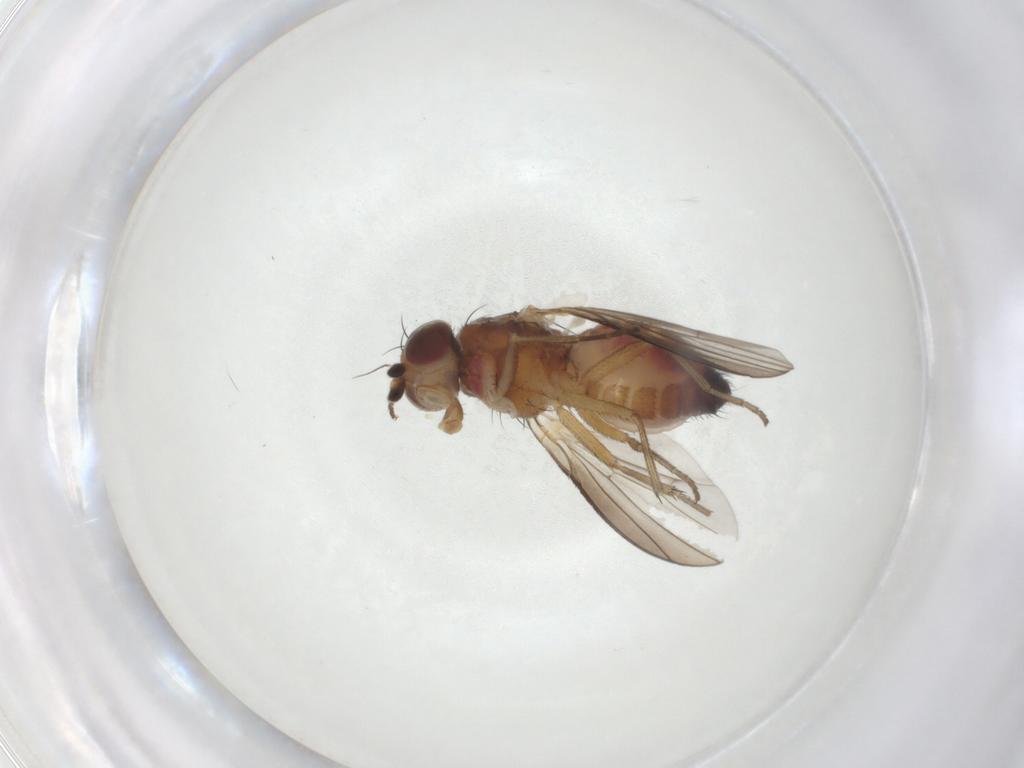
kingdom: Animalia
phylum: Arthropoda
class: Insecta
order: Diptera
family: Heleomyzidae
